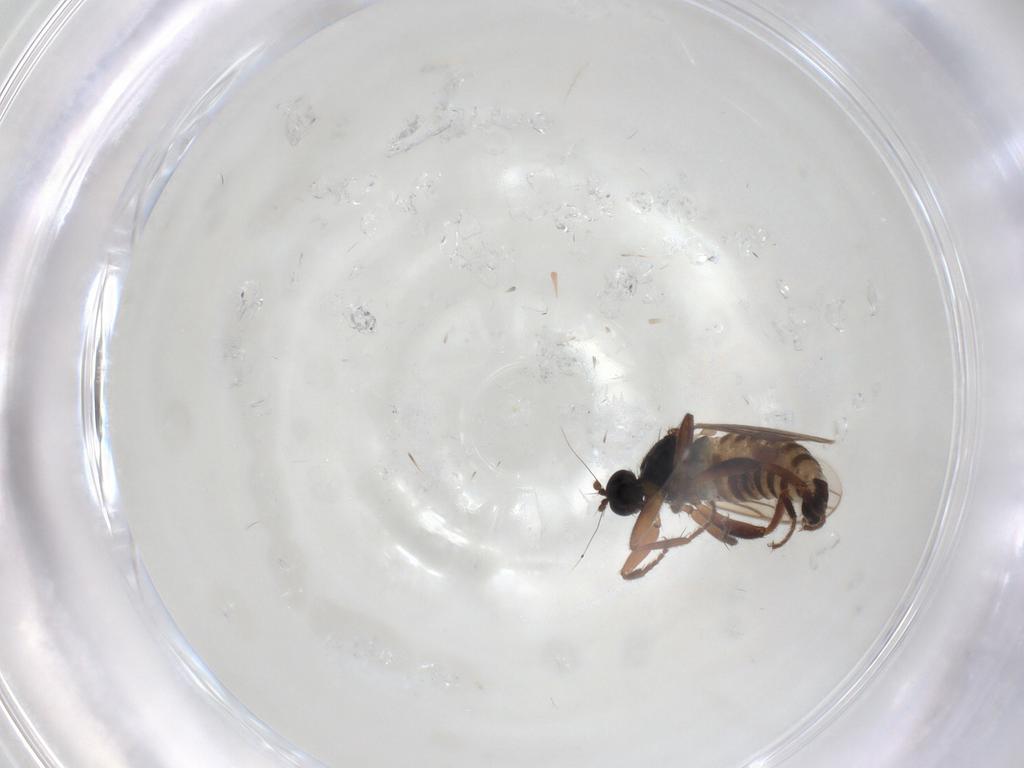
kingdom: Animalia
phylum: Arthropoda
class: Insecta
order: Diptera
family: Hybotidae
